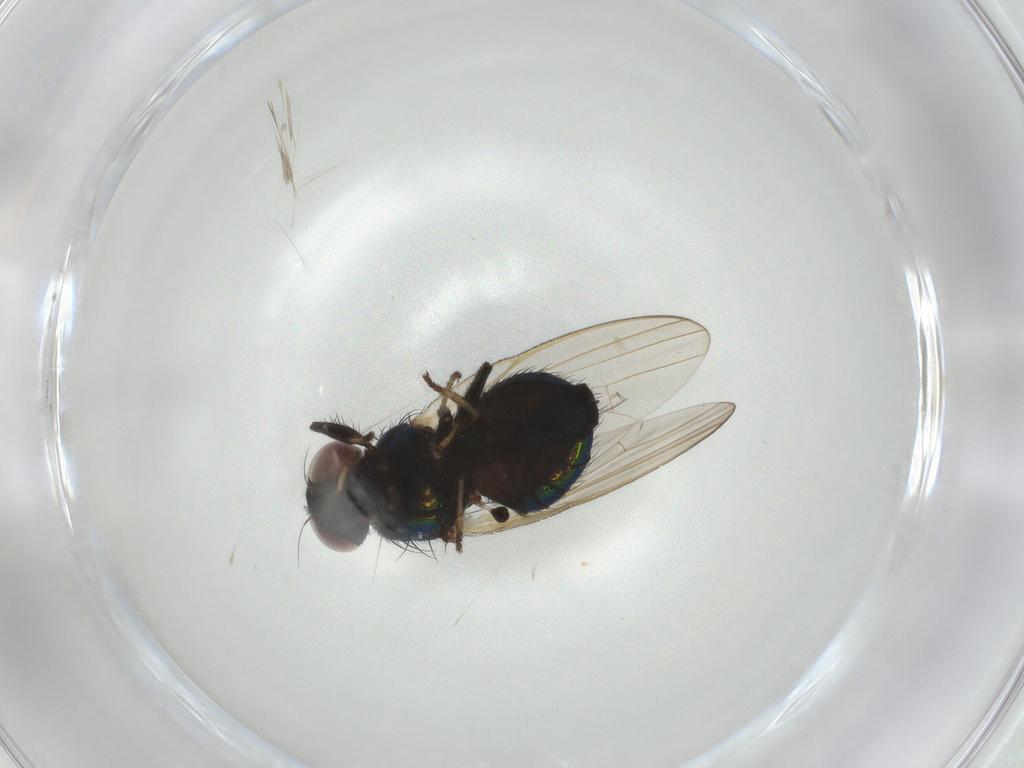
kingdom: Animalia
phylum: Arthropoda
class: Insecta
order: Diptera
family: Lonchaeidae
